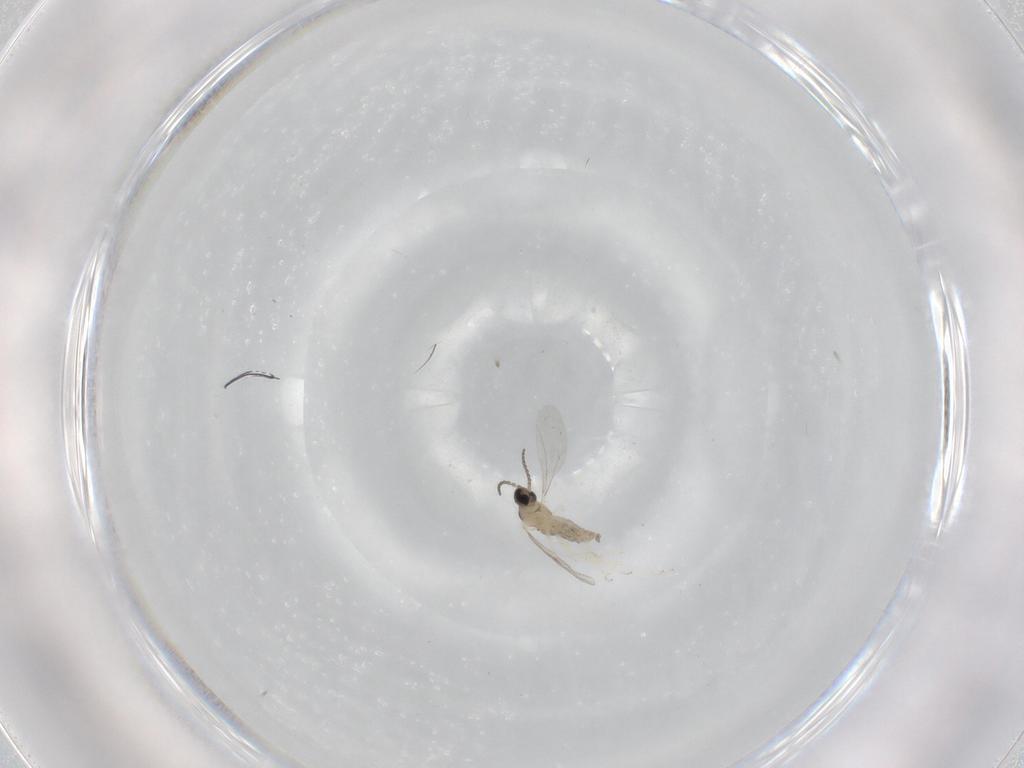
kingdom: Animalia
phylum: Arthropoda
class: Insecta
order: Diptera
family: Cecidomyiidae
